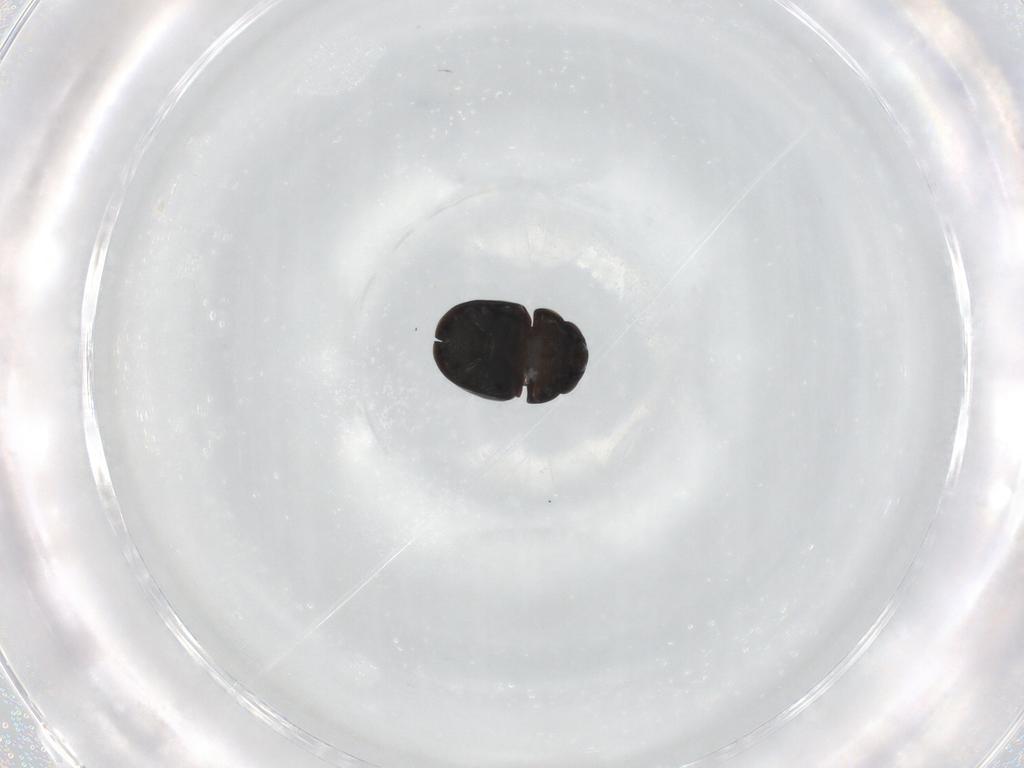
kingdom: Animalia
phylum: Arthropoda
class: Insecta
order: Coleoptera
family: Cybocephalidae
